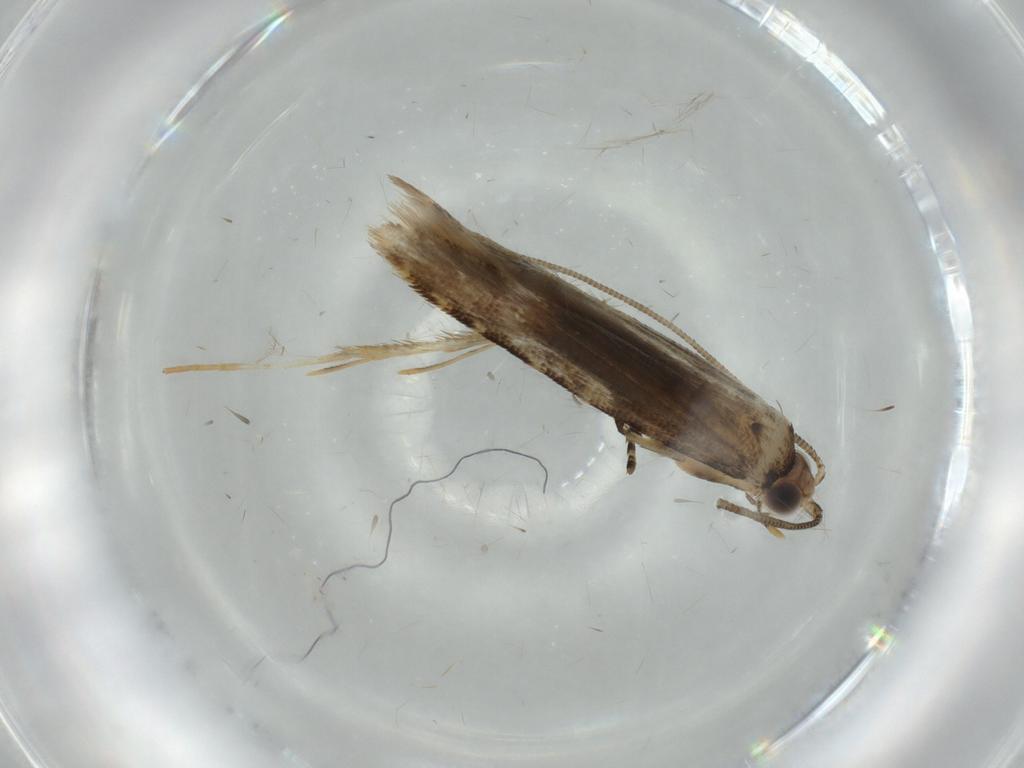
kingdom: Animalia
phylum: Arthropoda
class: Insecta
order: Lepidoptera
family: Tineidae
